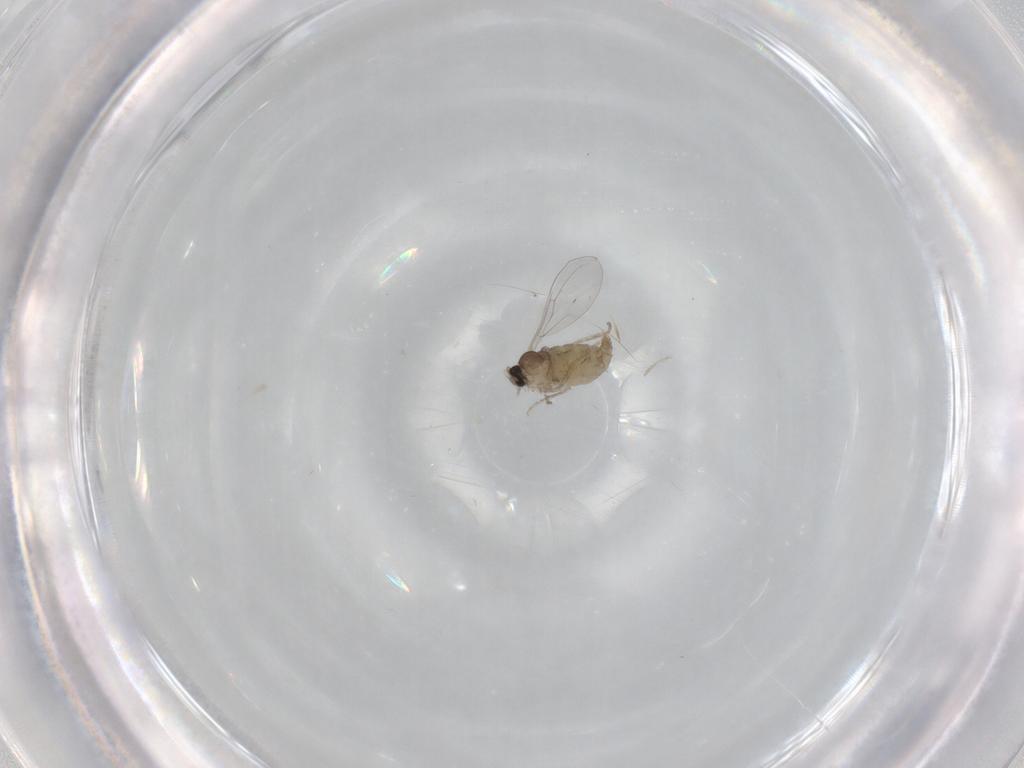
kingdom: Animalia
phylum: Arthropoda
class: Insecta
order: Diptera
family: Cecidomyiidae
